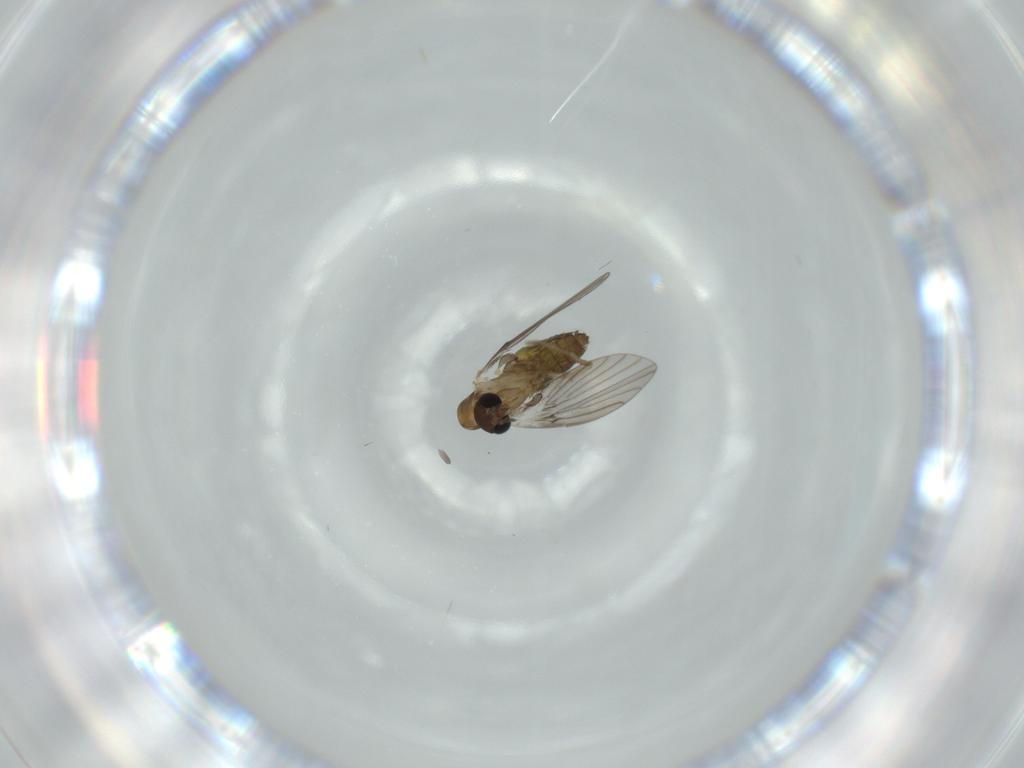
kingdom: Animalia
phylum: Arthropoda
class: Insecta
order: Diptera
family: Psychodidae
